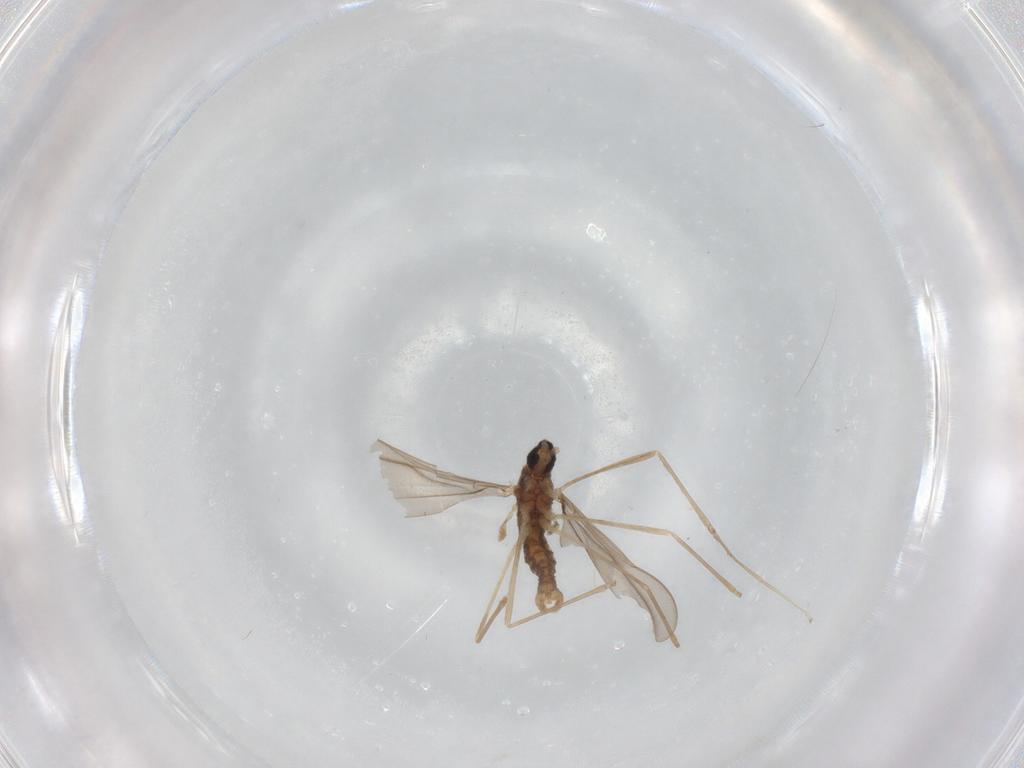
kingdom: Animalia
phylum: Arthropoda
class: Insecta
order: Diptera
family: Cecidomyiidae
